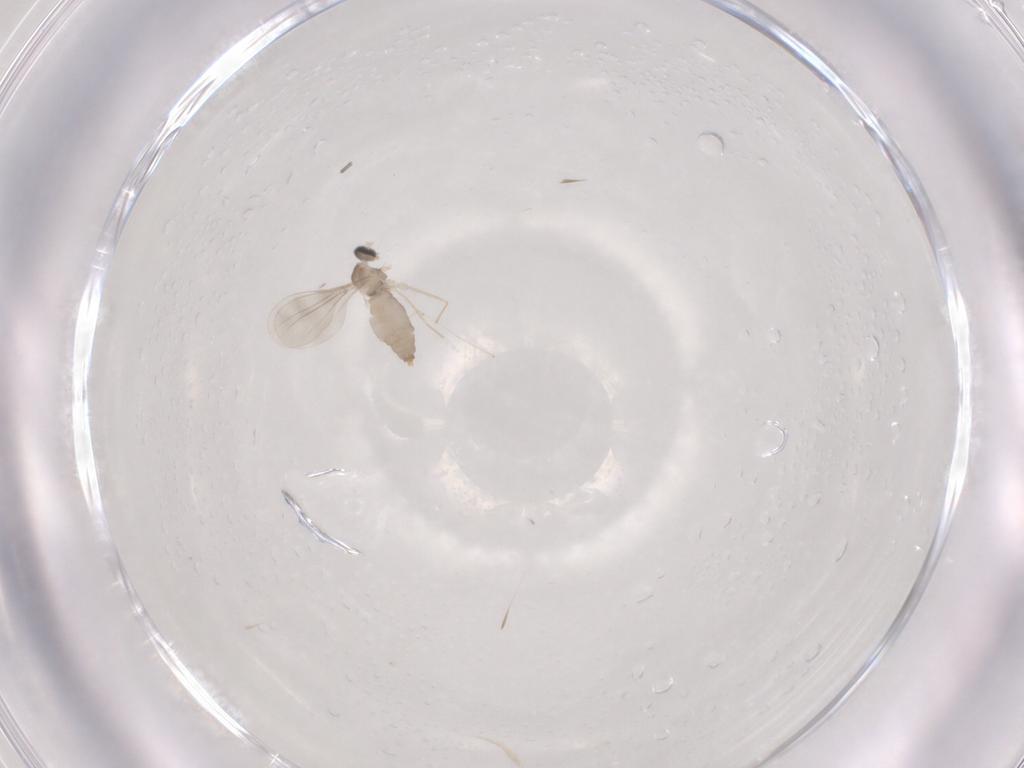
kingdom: Animalia
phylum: Arthropoda
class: Insecta
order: Diptera
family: Cecidomyiidae
